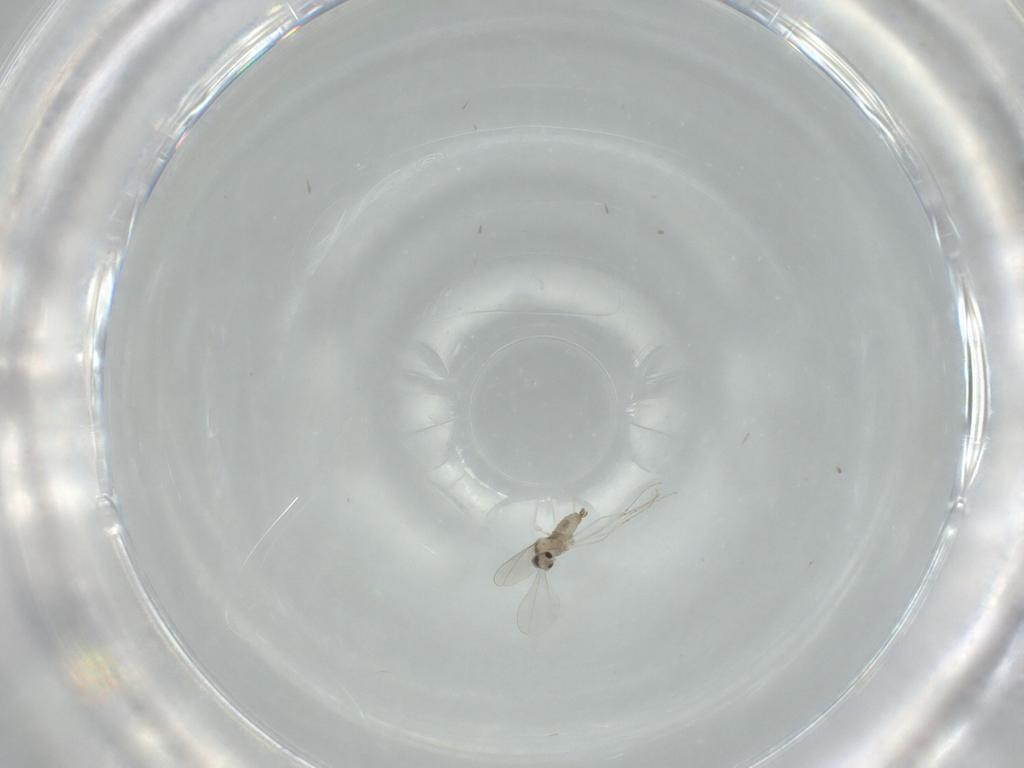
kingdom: Animalia
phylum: Arthropoda
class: Insecta
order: Diptera
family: Cecidomyiidae
